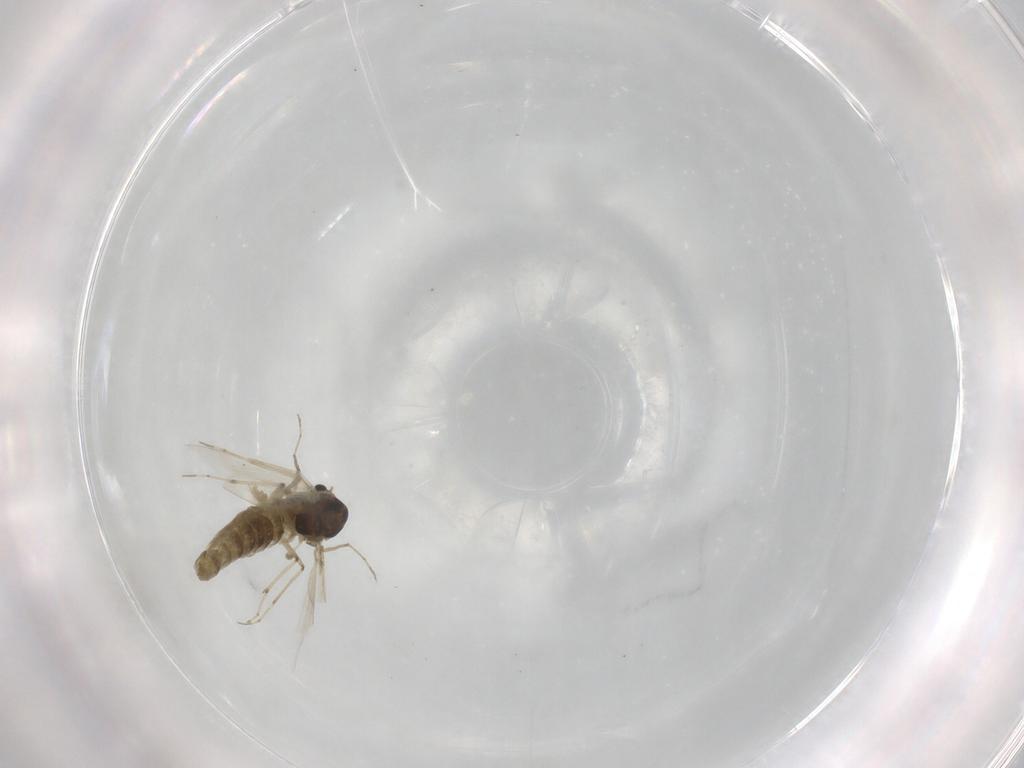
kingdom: Animalia
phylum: Arthropoda
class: Insecta
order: Diptera
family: Chironomidae
